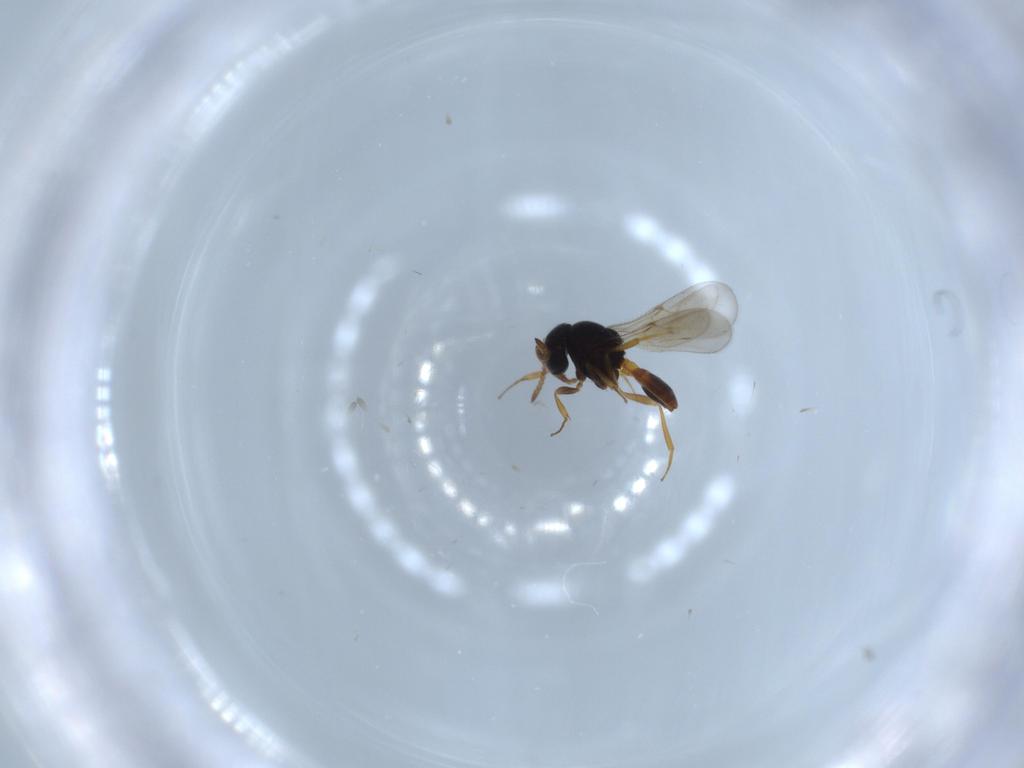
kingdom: Animalia
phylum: Arthropoda
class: Insecta
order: Hymenoptera
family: Scelionidae
